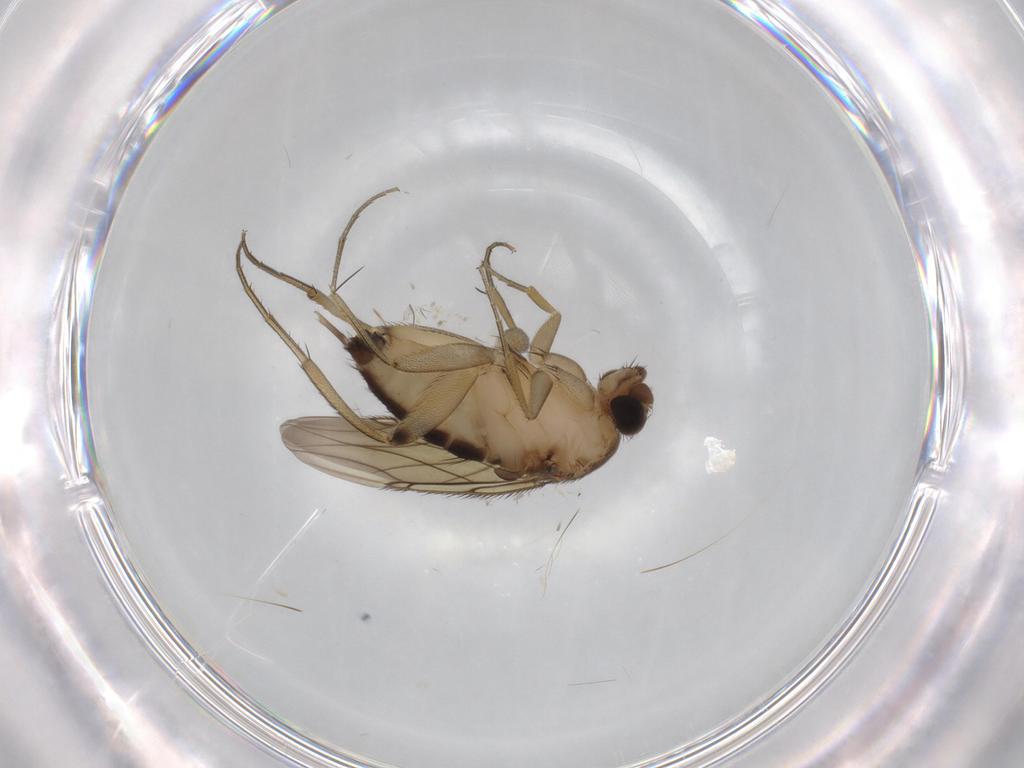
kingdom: Animalia
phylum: Arthropoda
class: Insecta
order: Diptera
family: Phoridae
